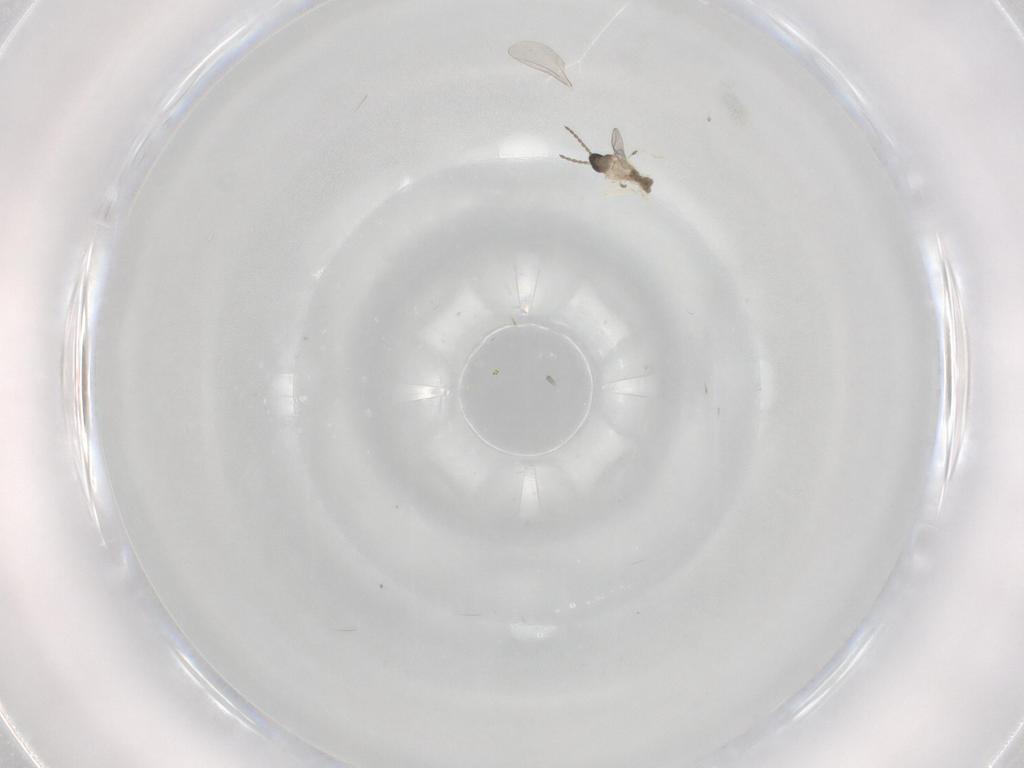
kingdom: Animalia
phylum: Arthropoda
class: Insecta
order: Diptera
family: Cecidomyiidae
